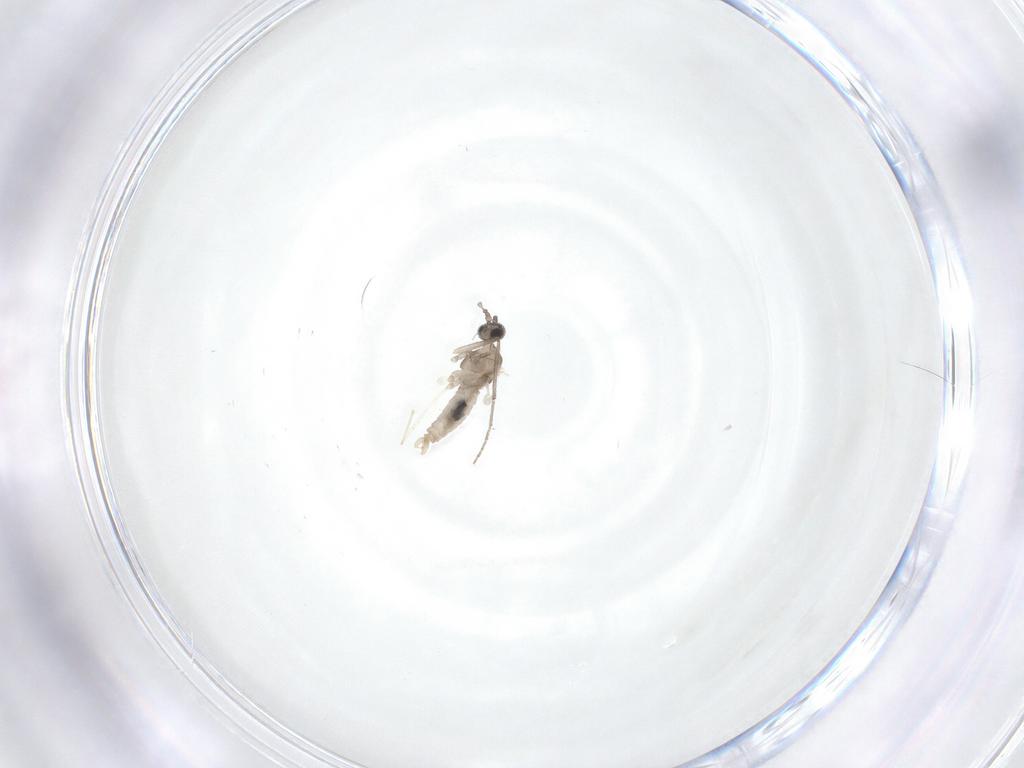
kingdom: Animalia
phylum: Arthropoda
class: Insecta
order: Diptera
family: Chironomidae
